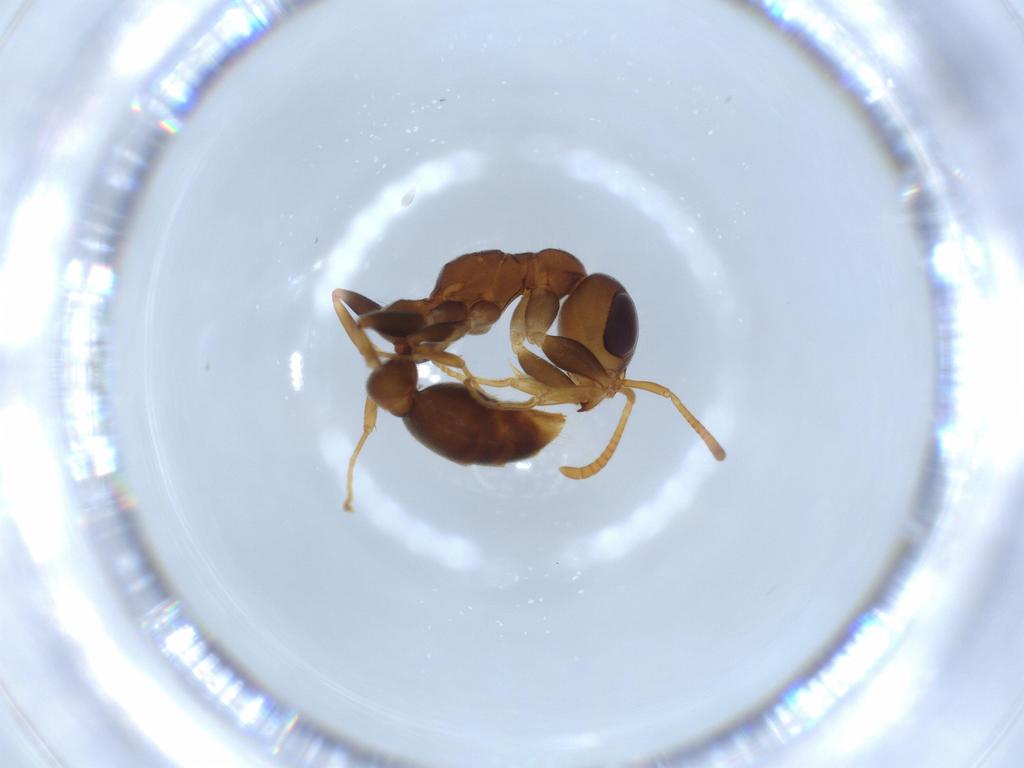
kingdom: Animalia
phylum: Arthropoda
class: Insecta
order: Hymenoptera
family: Formicidae
